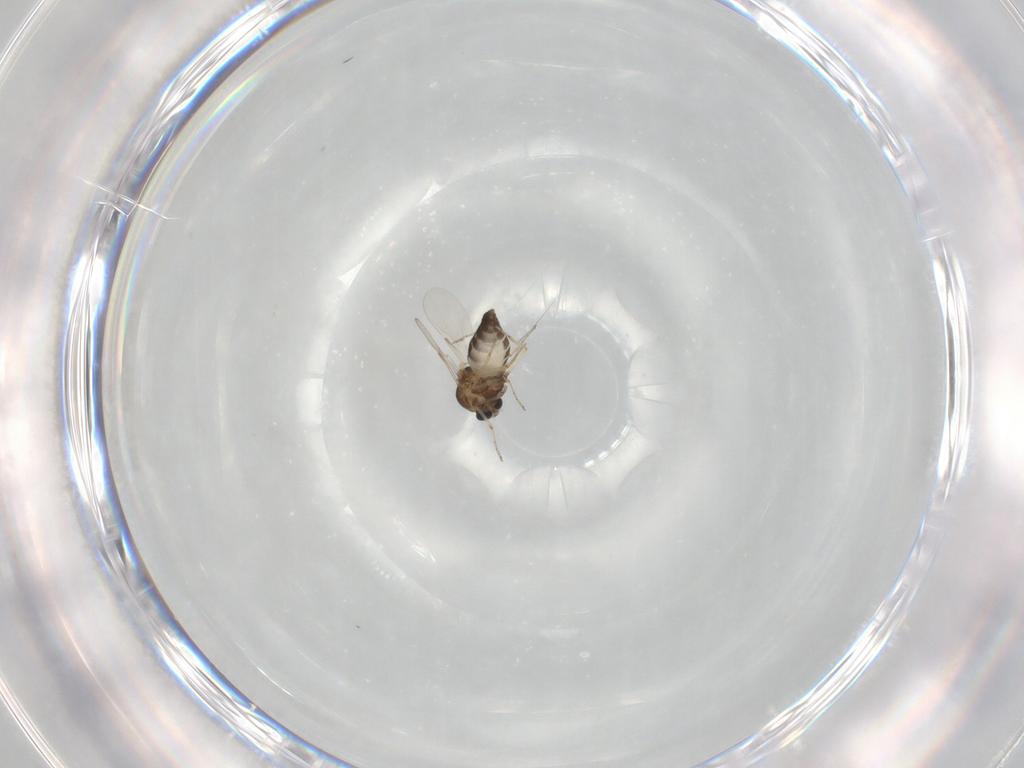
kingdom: Animalia
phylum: Arthropoda
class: Insecta
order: Diptera
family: Ceratopogonidae
